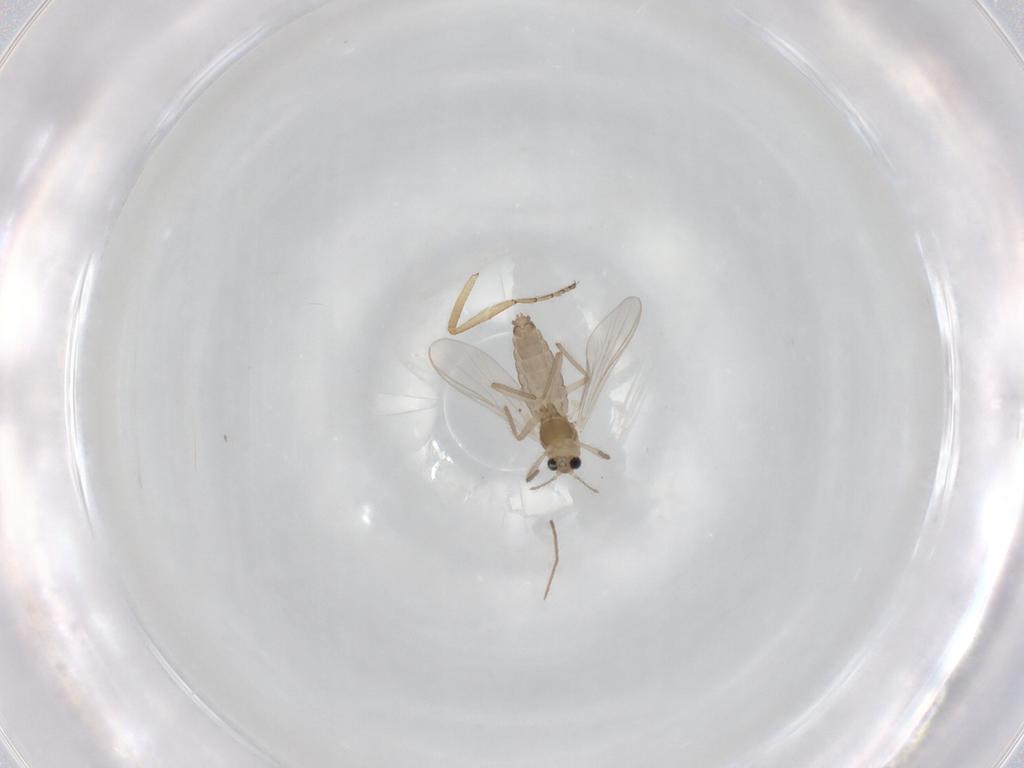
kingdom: Animalia
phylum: Arthropoda
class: Insecta
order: Diptera
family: Chironomidae
